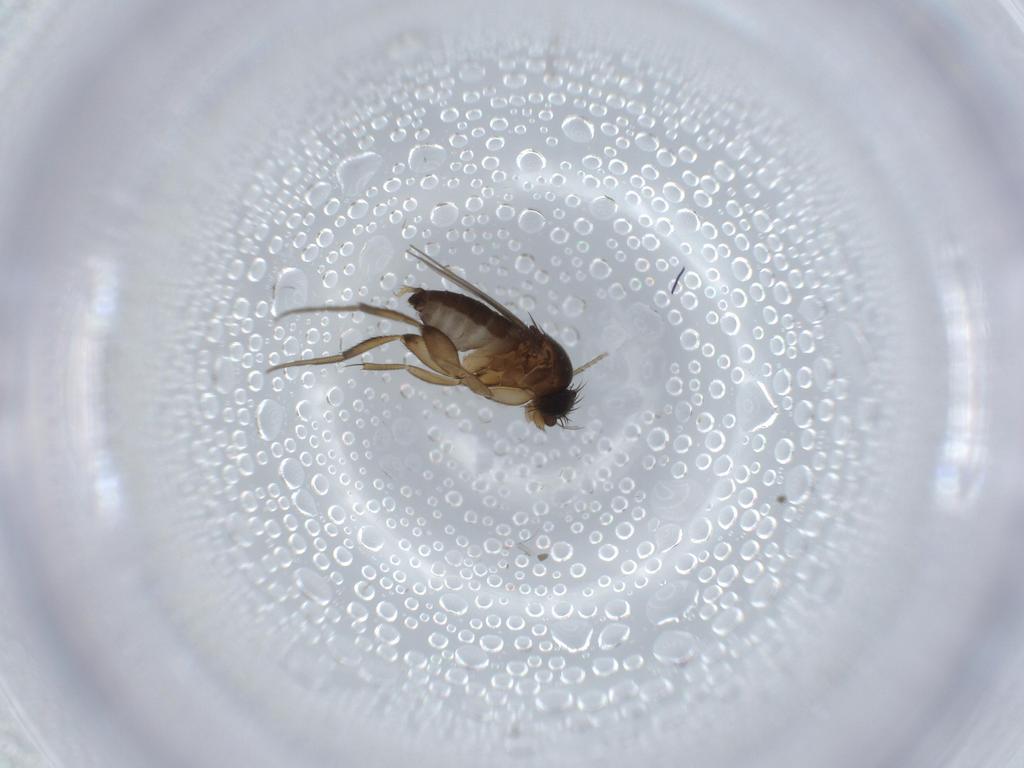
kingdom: Animalia
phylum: Arthropoda
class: Insecta
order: Diptera
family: Phoridae
